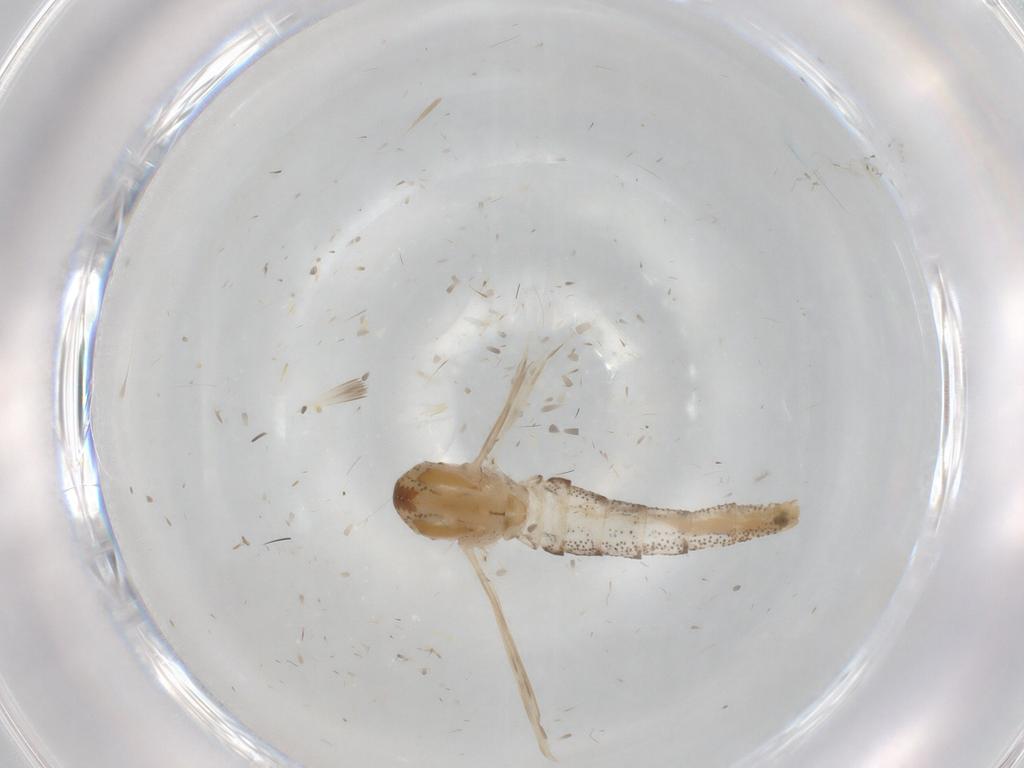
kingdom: Animalia
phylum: Arthropoda
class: Insecta
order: Diptera
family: Chaoboridae
